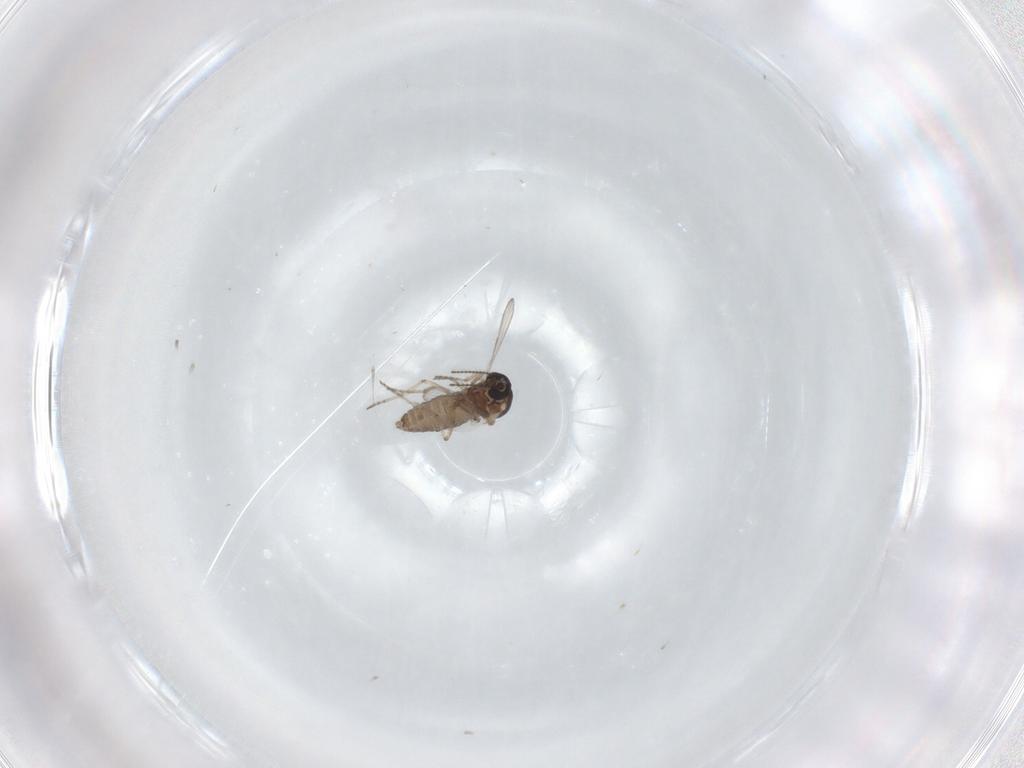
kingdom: Animalia
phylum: Arthropoda
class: Insecta
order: Diptera
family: Ceratopogonidae
